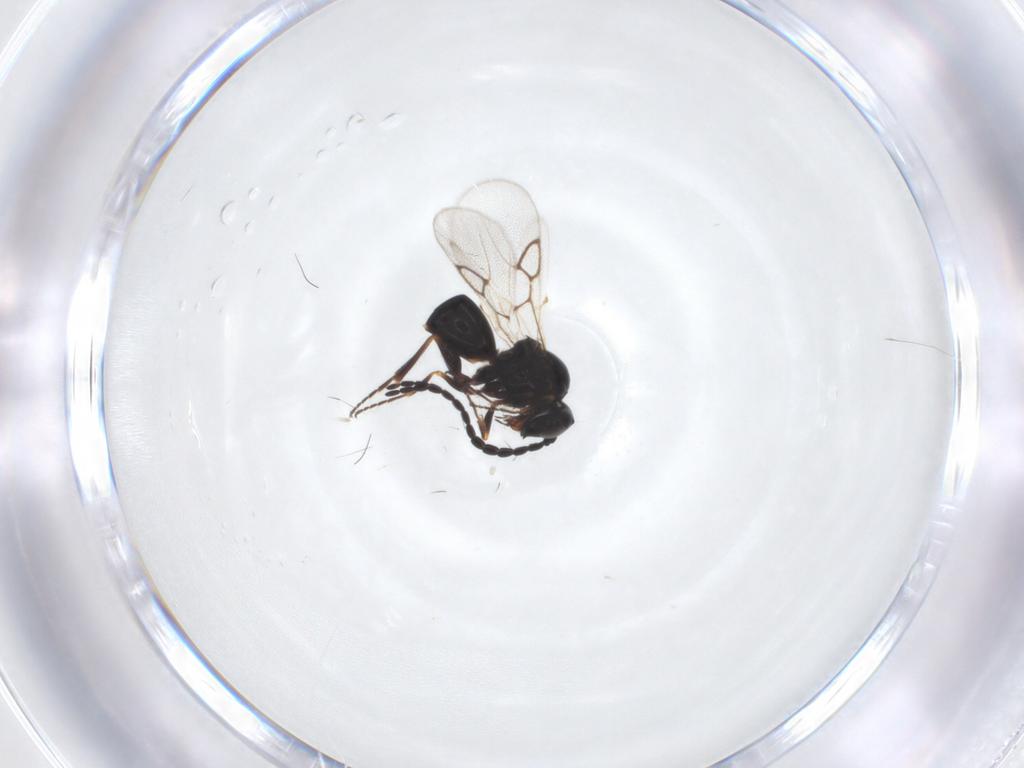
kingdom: Animalia
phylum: Arthropoda
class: Insecta
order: Hymenoptera
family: Figitidae
